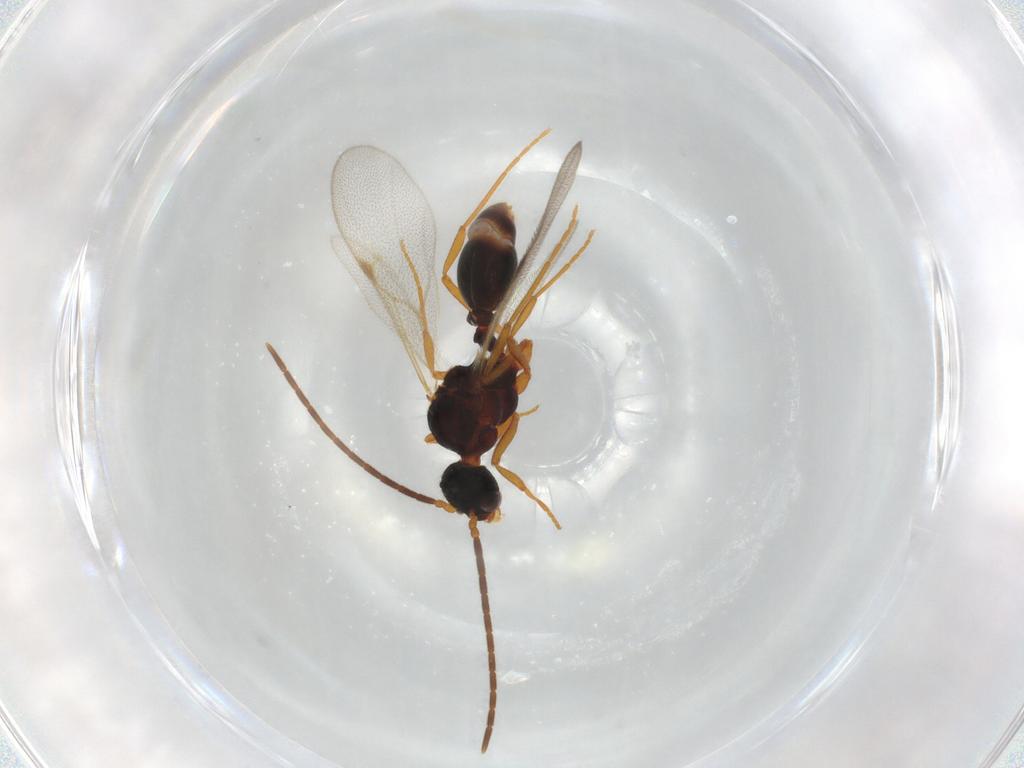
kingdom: Animalia
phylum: Arthropoda
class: Insecta
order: Hymenoptera
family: Formicidae
